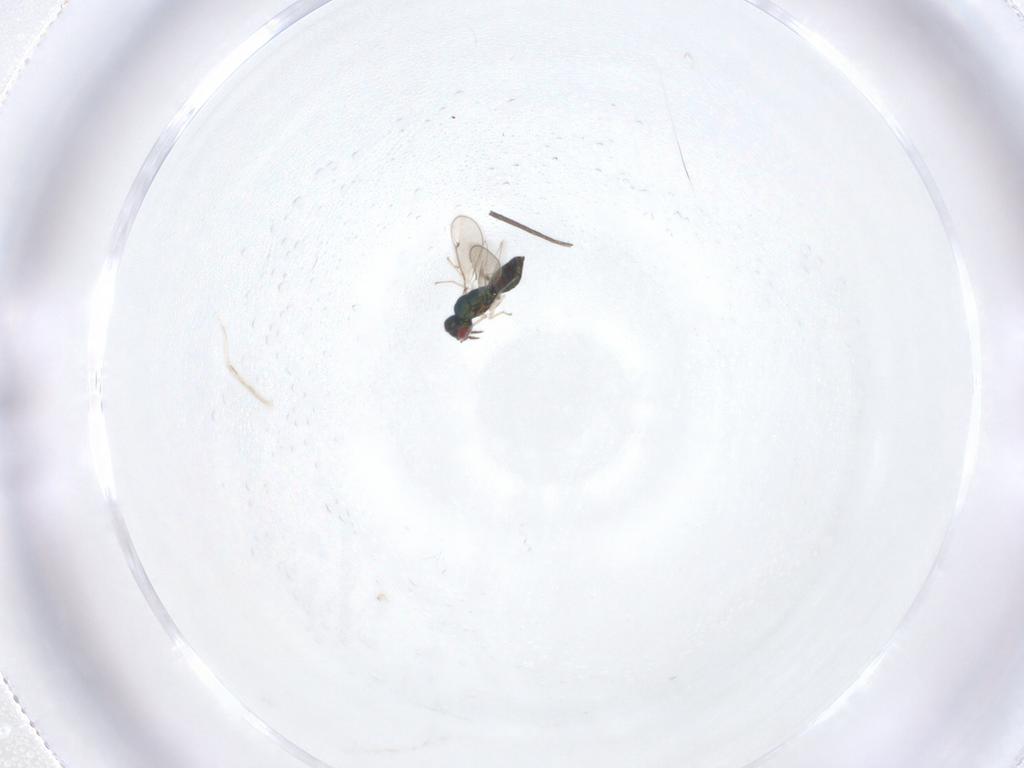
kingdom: Animalia
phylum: Arthropoda
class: Insecta
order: Hymenoptera
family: Eulophidae
